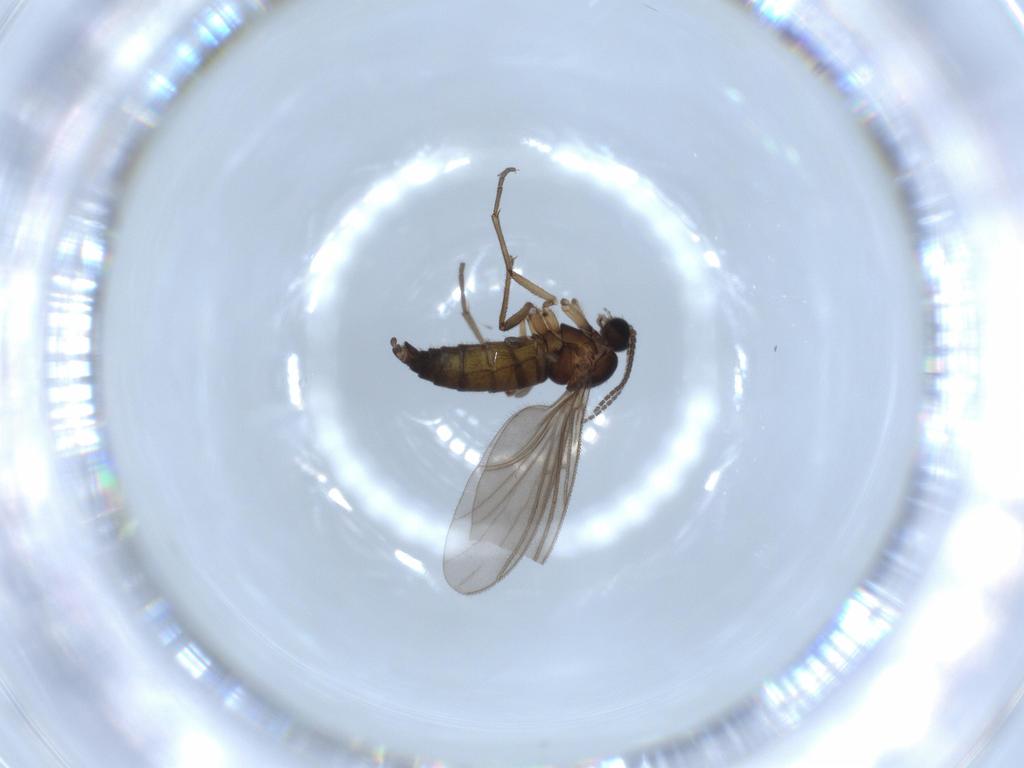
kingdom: Animalia
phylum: Arthropoda
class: Insecta
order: Diptera
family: Sciaridae
